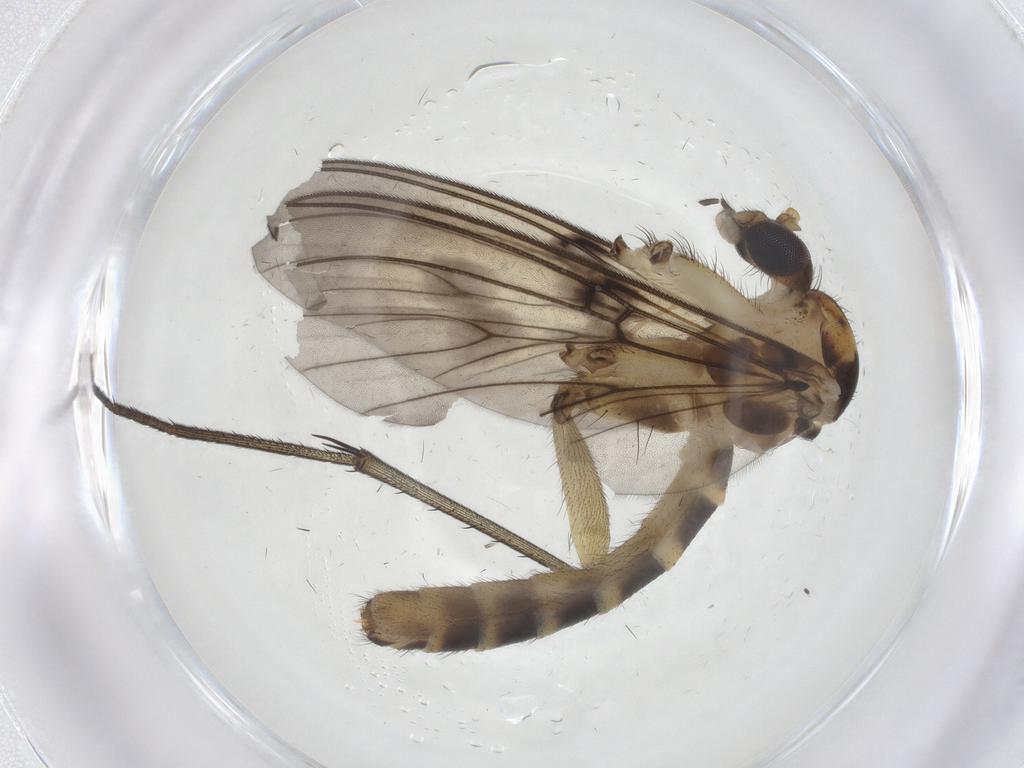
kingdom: Animalia
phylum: Arthropoda
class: Insecta
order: Diptera
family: Mycetophilidae
